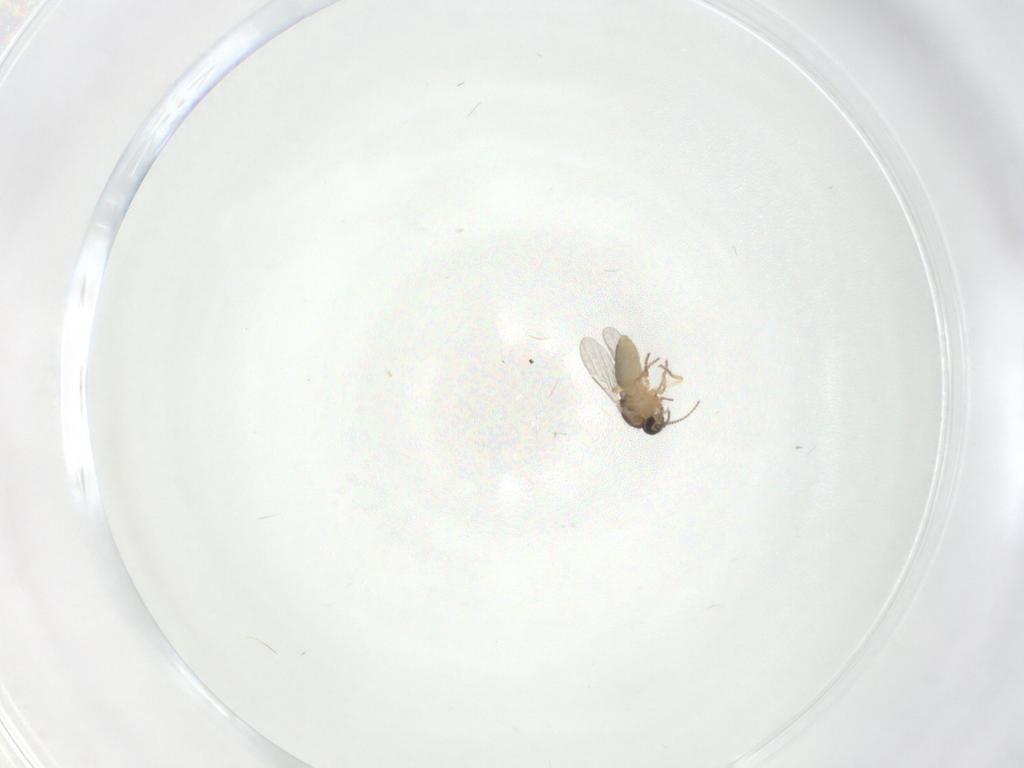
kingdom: Animalia
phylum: Arthropoda
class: Insecta
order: Diptera
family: Ceratopogonidae
